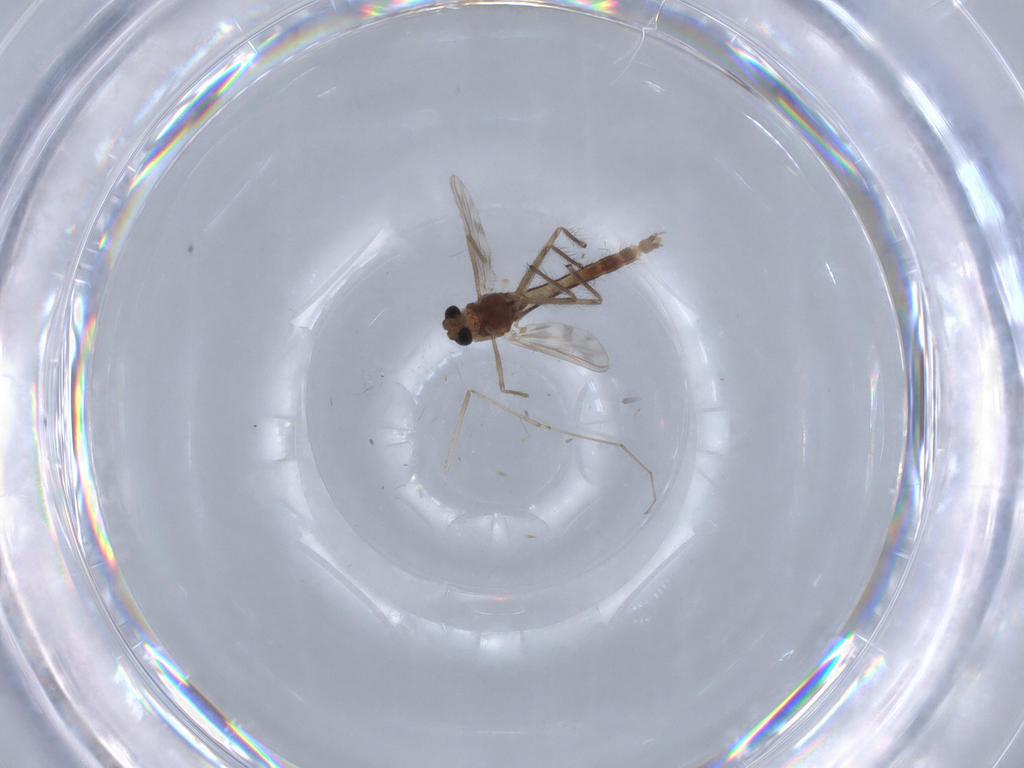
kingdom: Animalia
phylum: Arthropoda
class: Insecta
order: Diptera
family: Chironomidae
